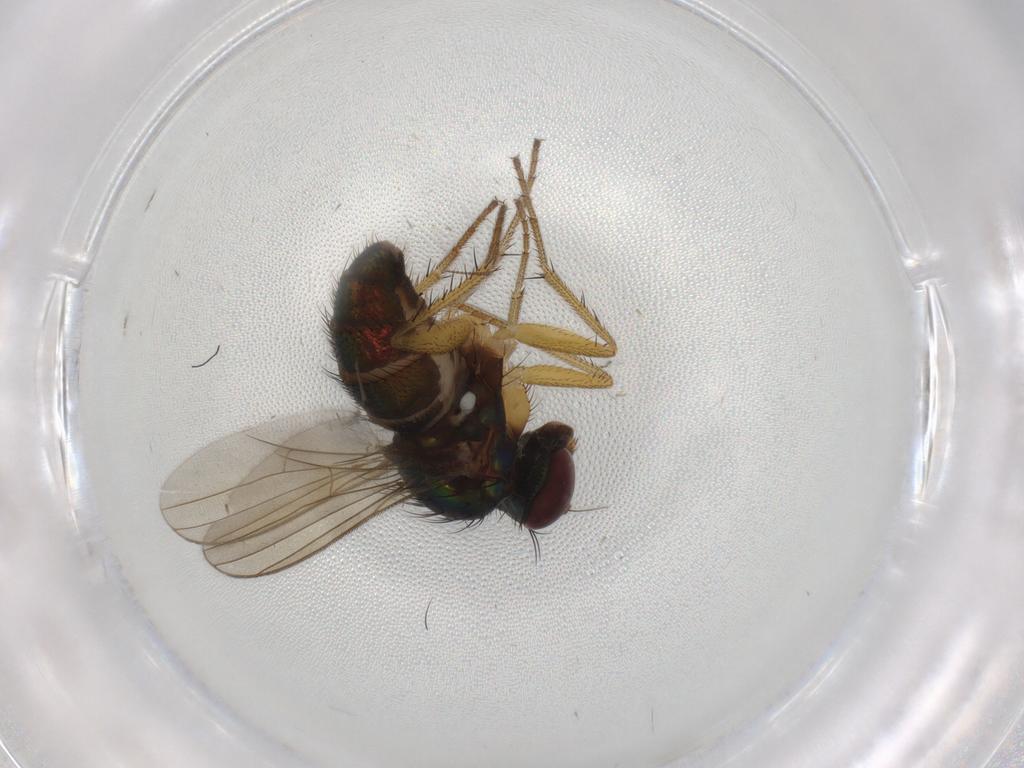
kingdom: Animalia
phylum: Arthropoda
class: Insecta
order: Diptera
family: Dolichopodidae
